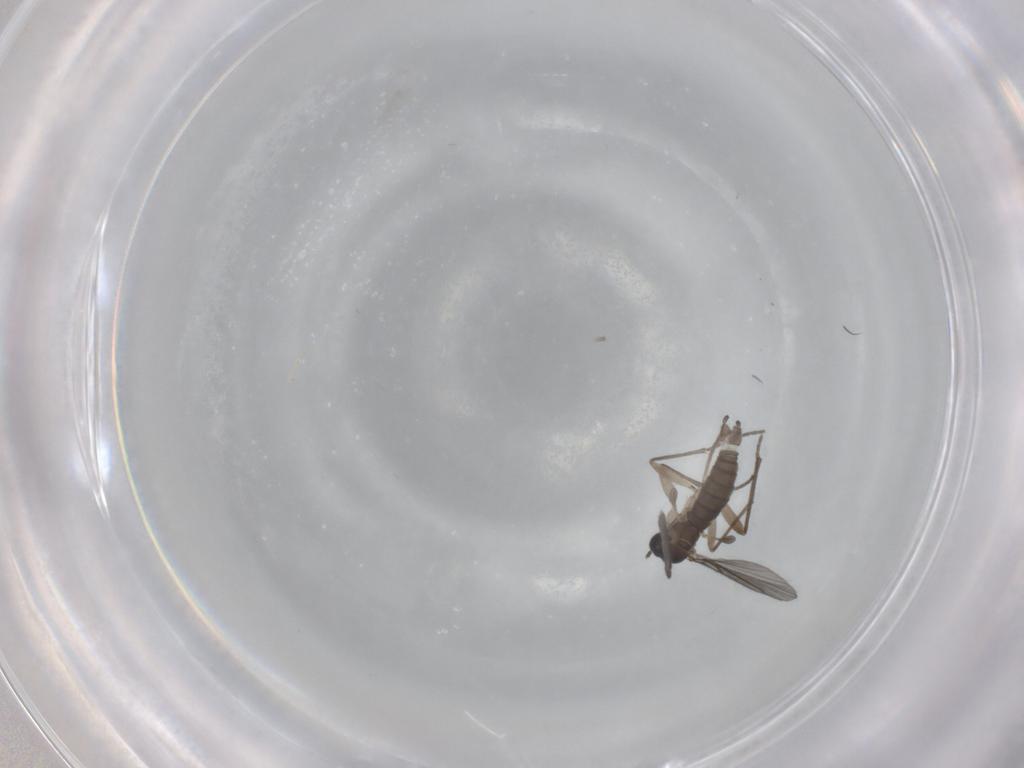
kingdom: Animalia
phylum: Arthropoda
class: Insecta
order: Diptera
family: Sciaridae
